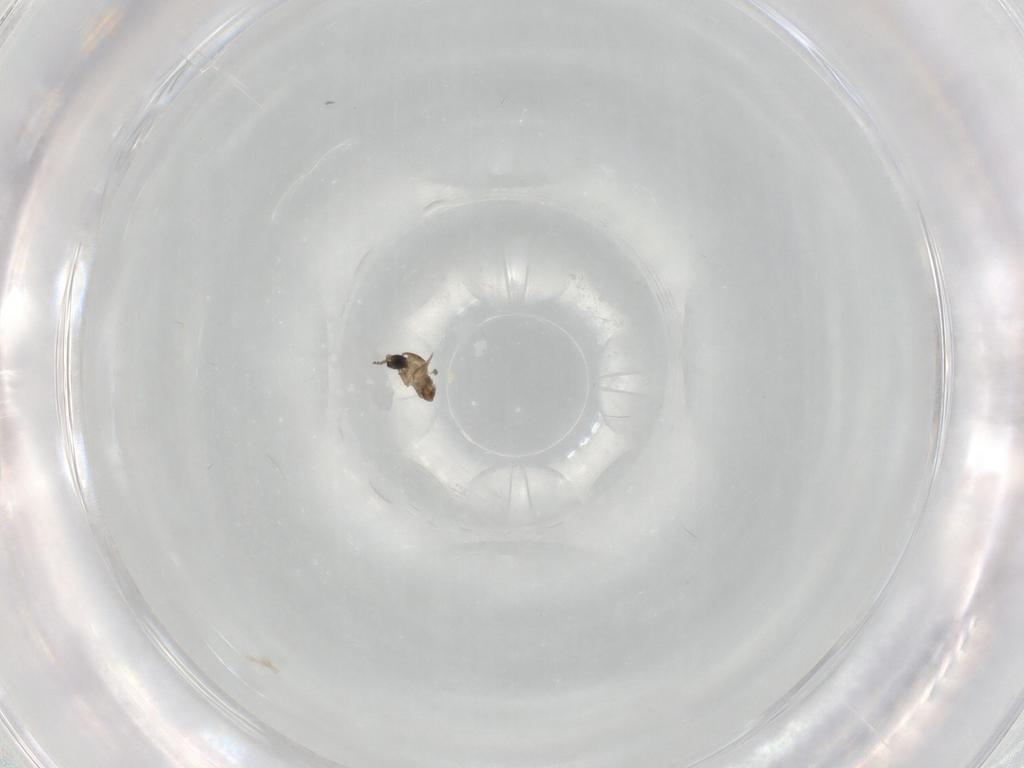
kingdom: Animalia
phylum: Arthropoda
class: Insecta
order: Diptera
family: Cecidomyiidae
